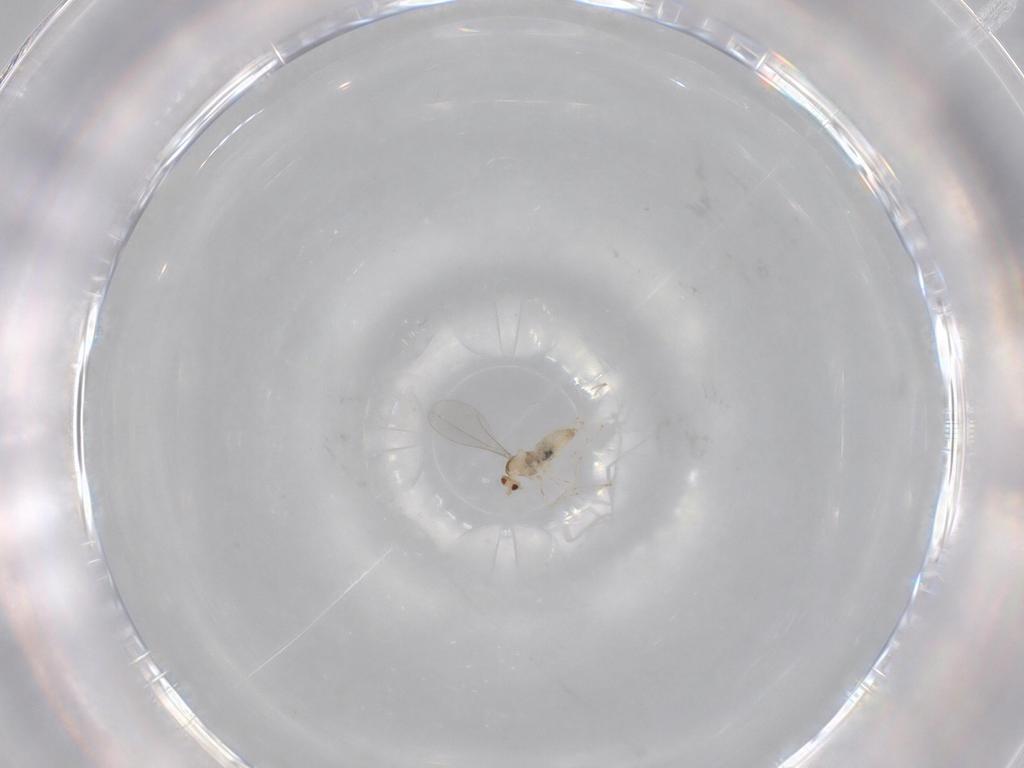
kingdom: Animalia
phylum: Arthropoda
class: Insecta
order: Diptera
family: Cecidomyiidae
